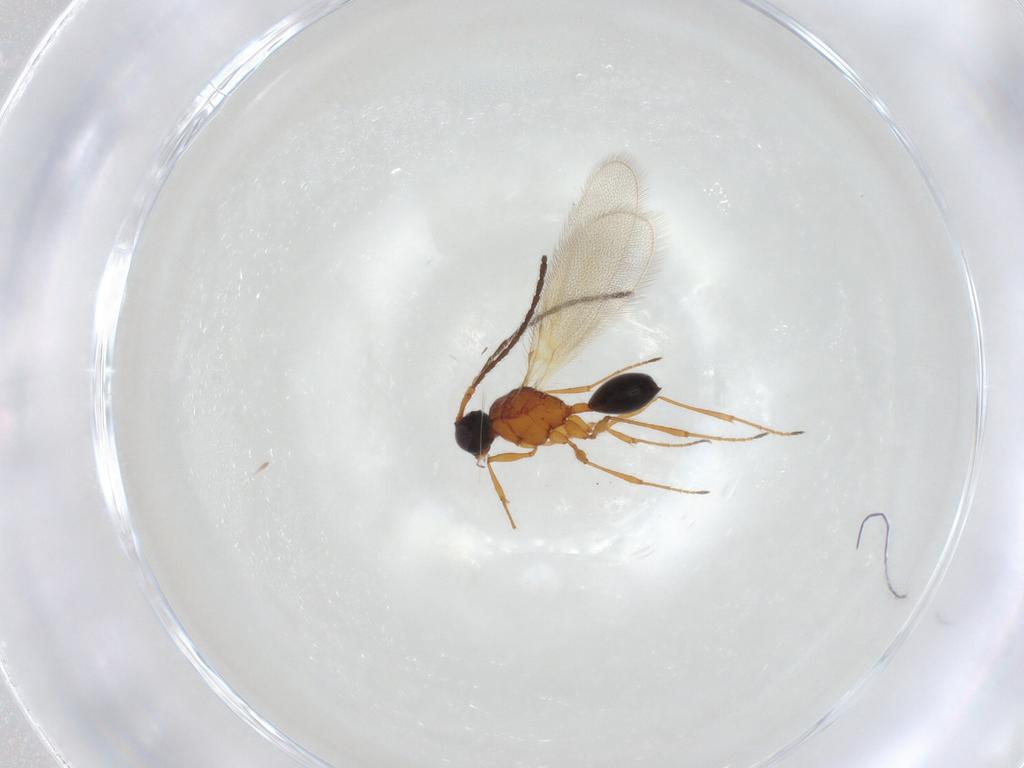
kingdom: Animalia
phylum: Arthropoda
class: Insecta
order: Hymenoptera
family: Diapriidae
